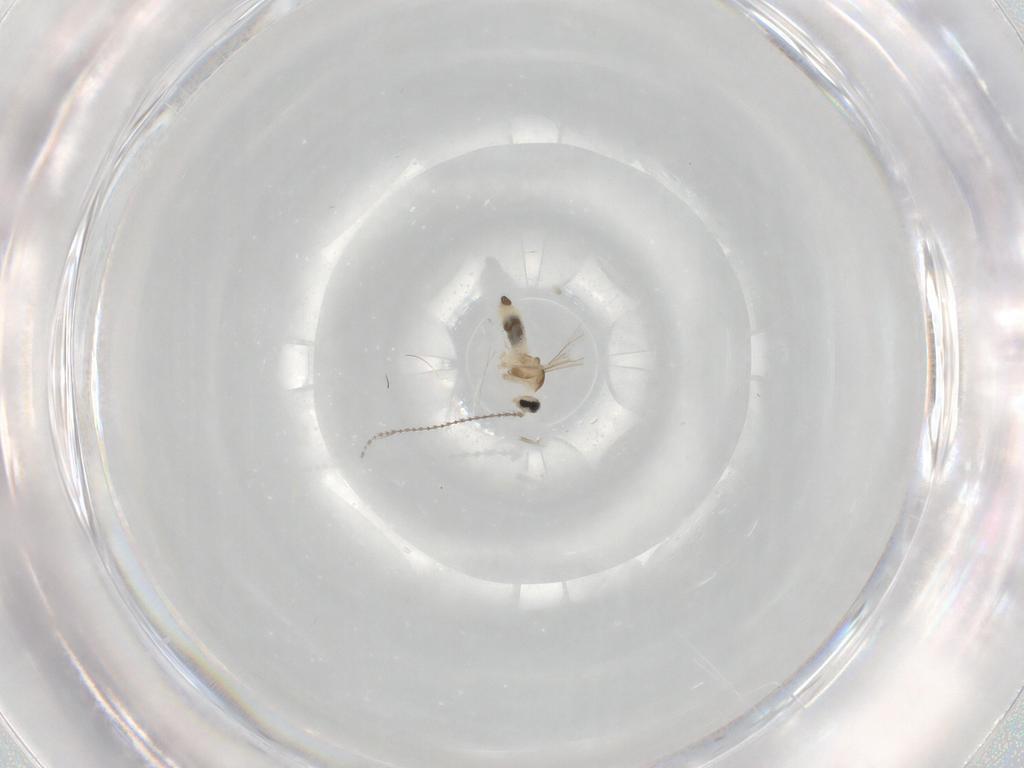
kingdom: Animalia
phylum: Arthropoda
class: Insecta
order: Diptera
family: Cecidomyiidae
